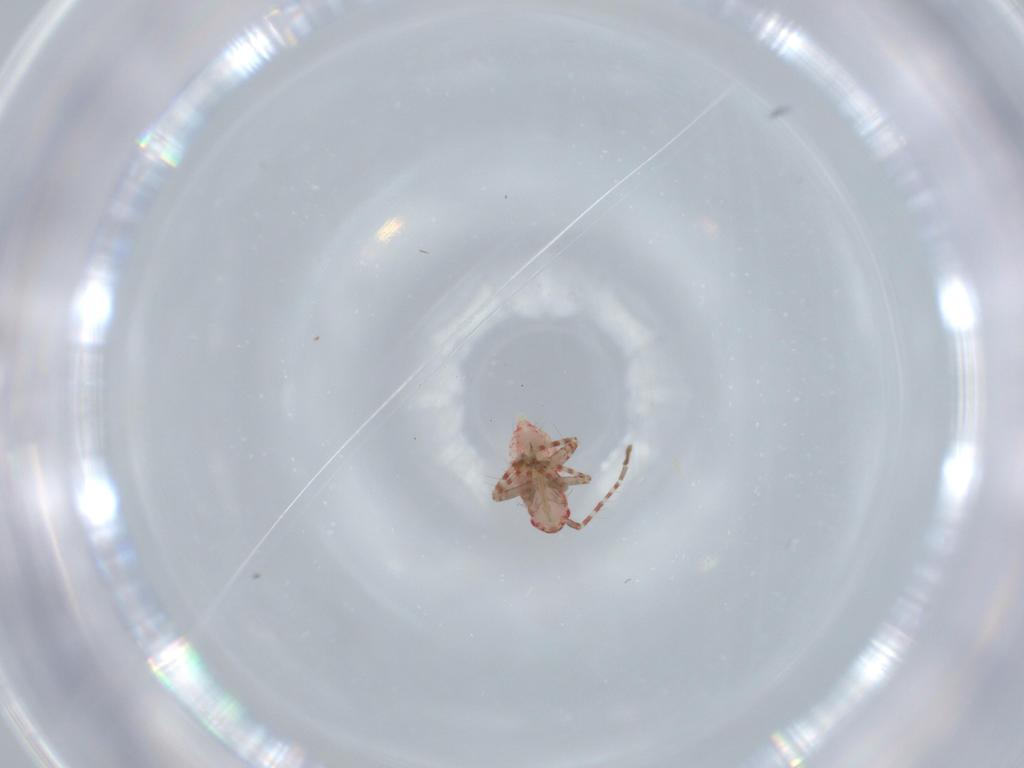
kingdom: Animalia
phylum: Arthropoda
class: Insecta
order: Hemiptera
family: Miridae
